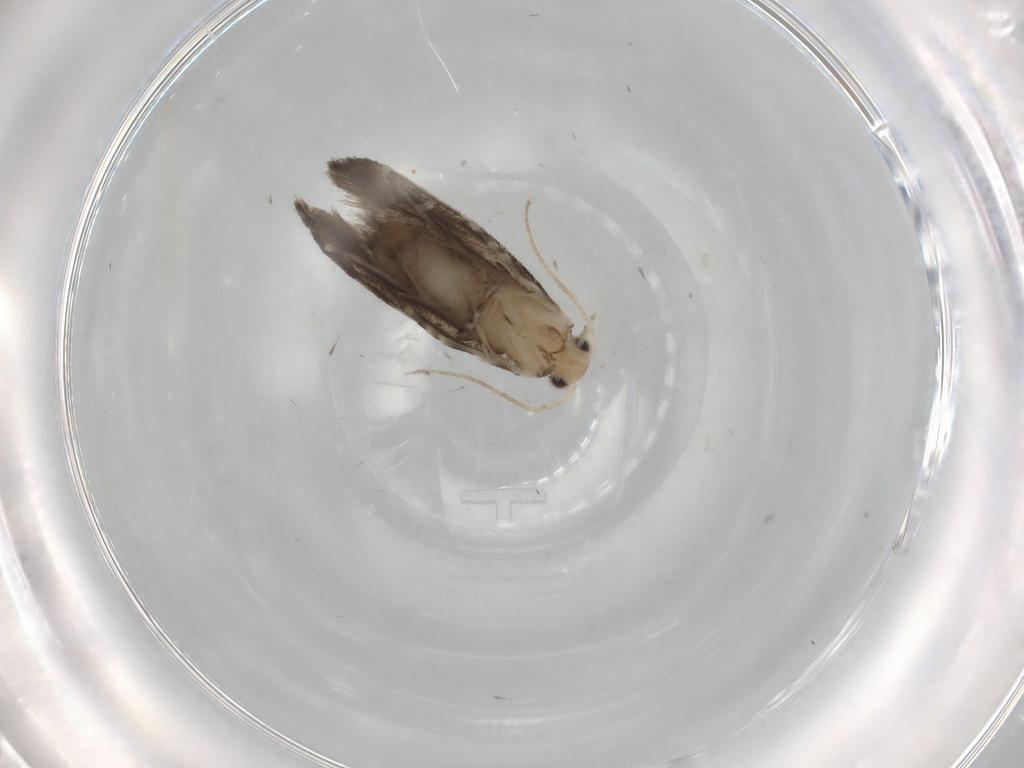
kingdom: Animalia
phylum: Arthropoda
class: Insecta
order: Lepidoptera
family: Tineidae
